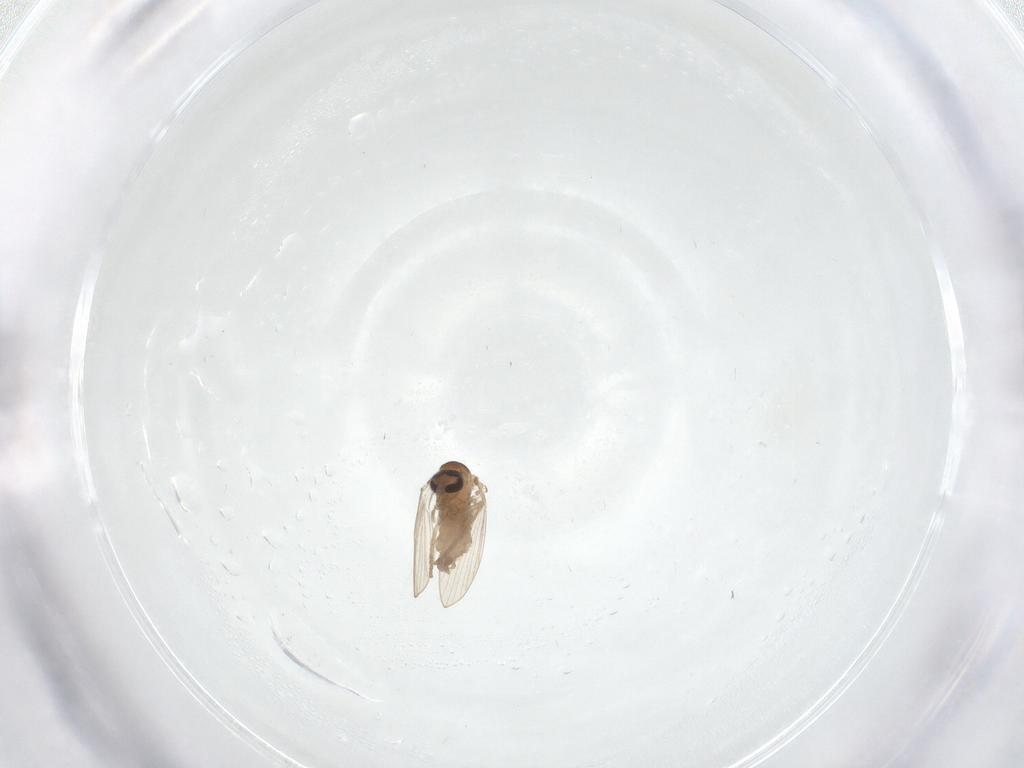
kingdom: Animalia
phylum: Arthropoda
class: Insecta
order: Diptera
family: Psychodidae
